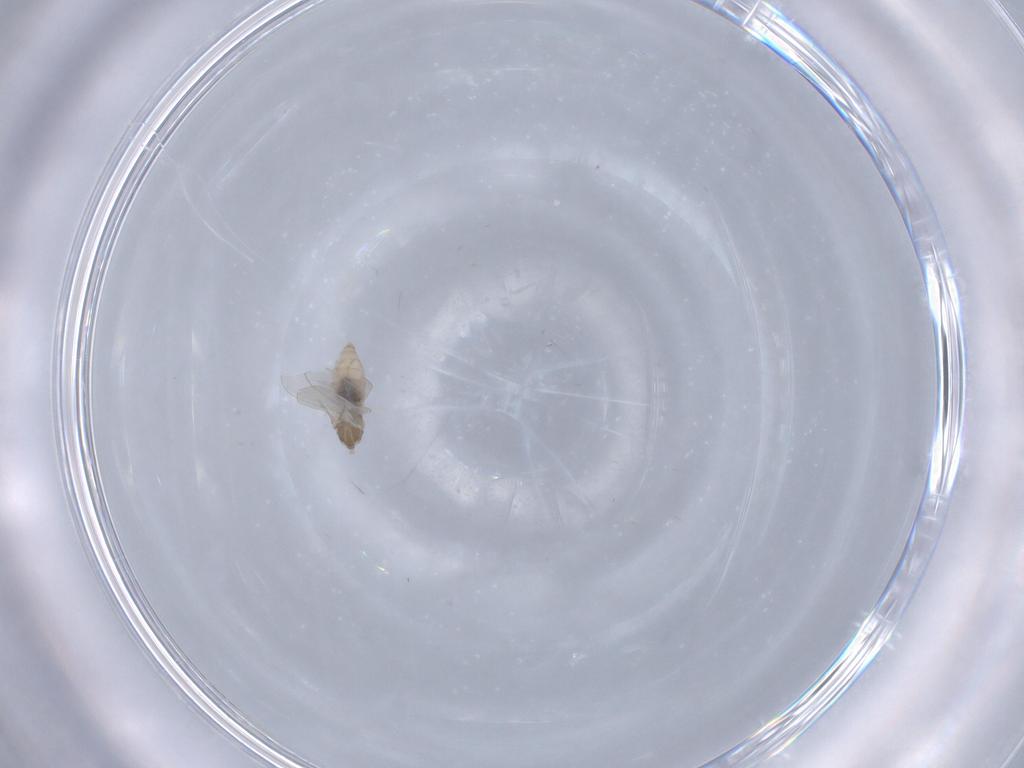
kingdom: Animalia
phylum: Arthropoda
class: Insecta
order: Diptera
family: Cecidomyiidae
